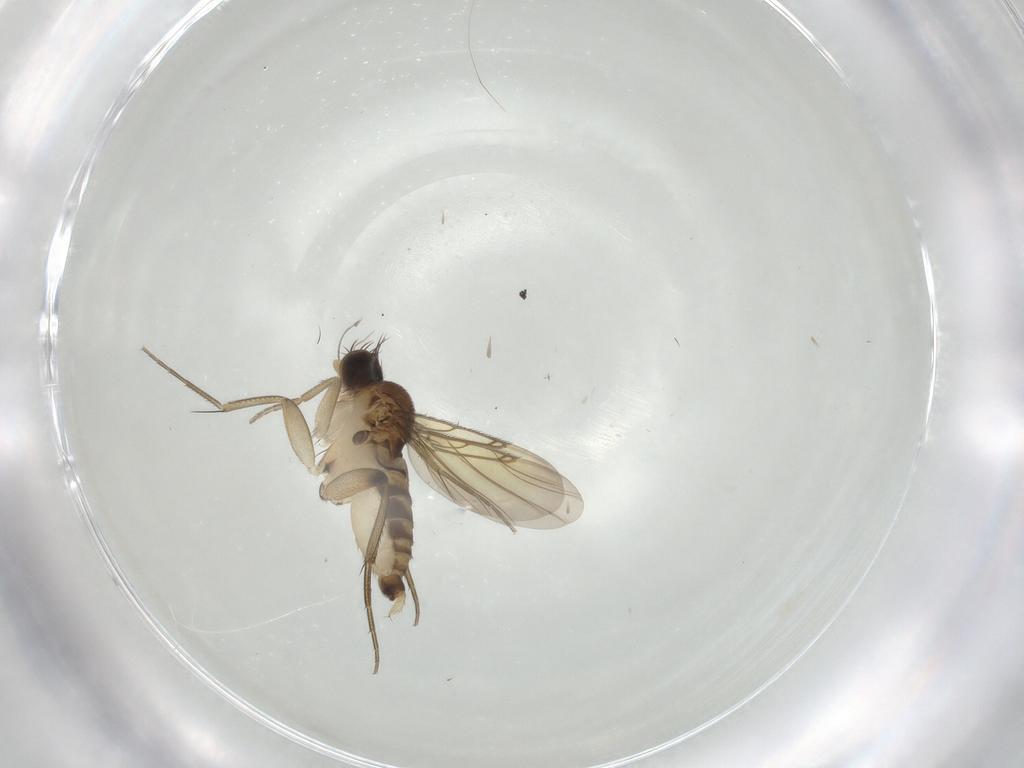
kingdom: Animalia
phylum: Arthropoda
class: Insecta
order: Diptera
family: Phoridae
